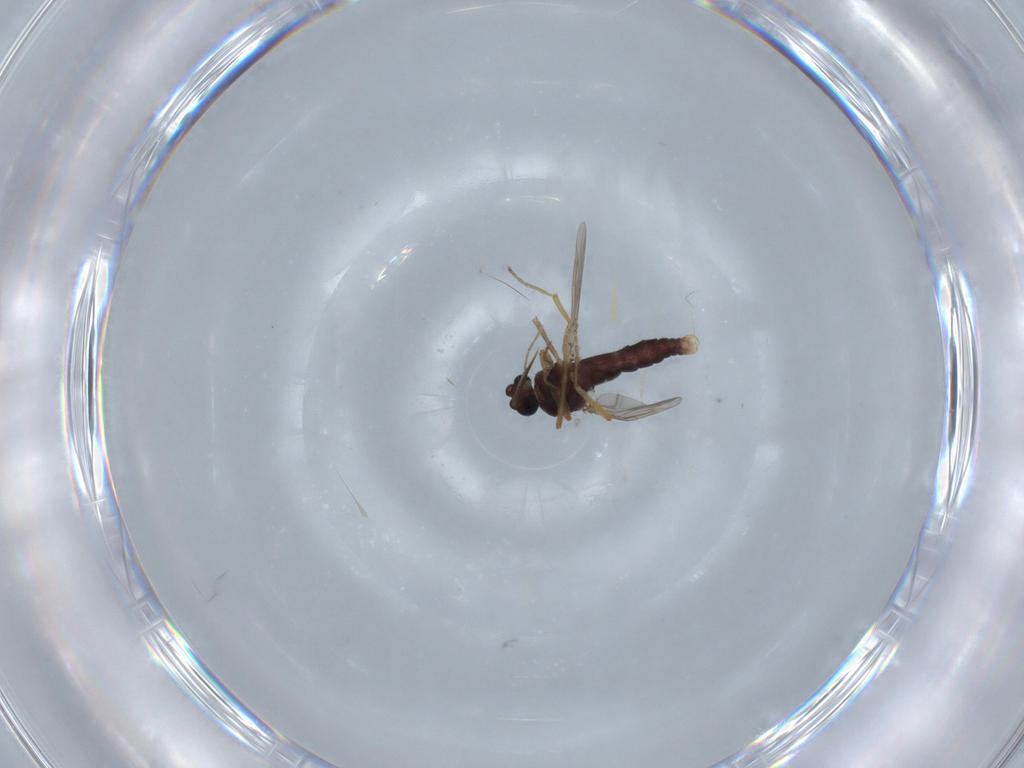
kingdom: Animalia
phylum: Arthropoda
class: Insecta
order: Diptera
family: Ceratopogonidae
